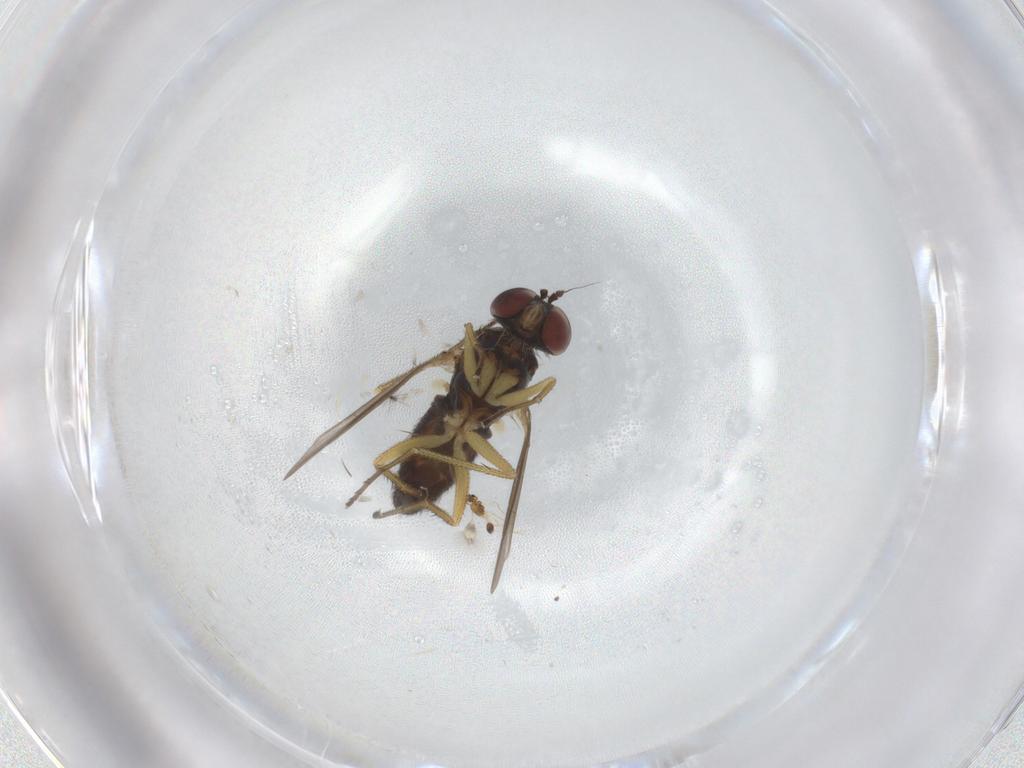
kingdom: Animalia
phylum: Arthropoda
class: Insecta
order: Diptera
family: Dolichopodidae
